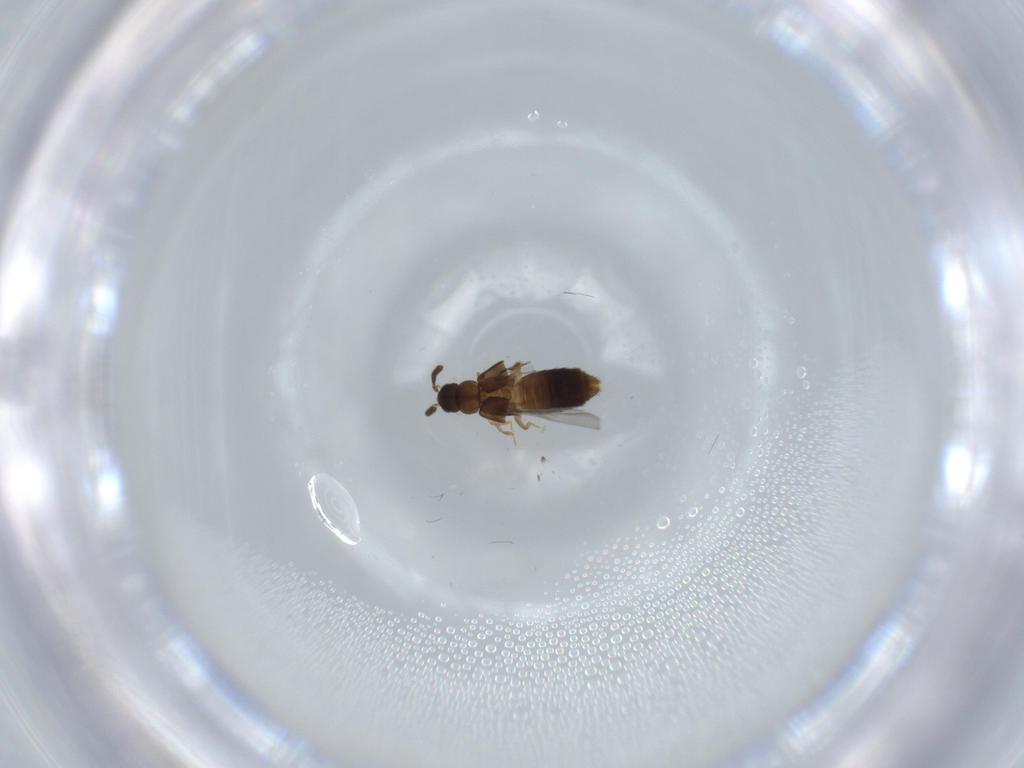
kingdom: Animalia
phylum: Arthropoda
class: Insecta
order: Coleoptera
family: Staphylinidae
